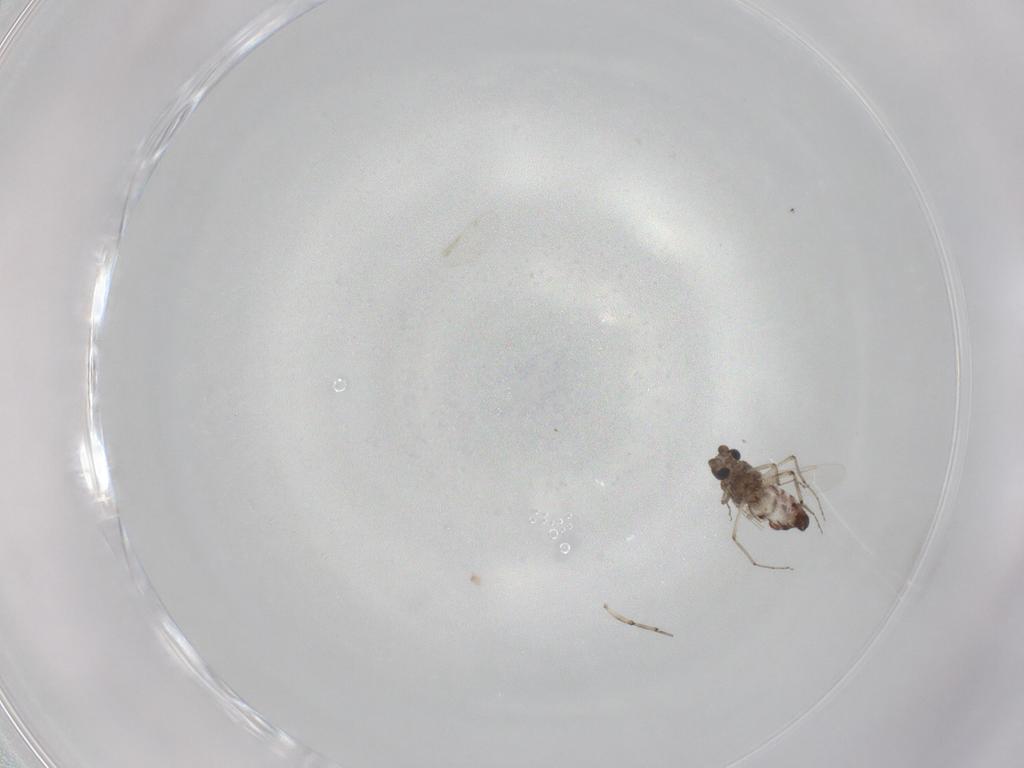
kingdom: Animalia
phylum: Arthropoda
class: Insecta
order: Diptera
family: Ceratopogonidae
